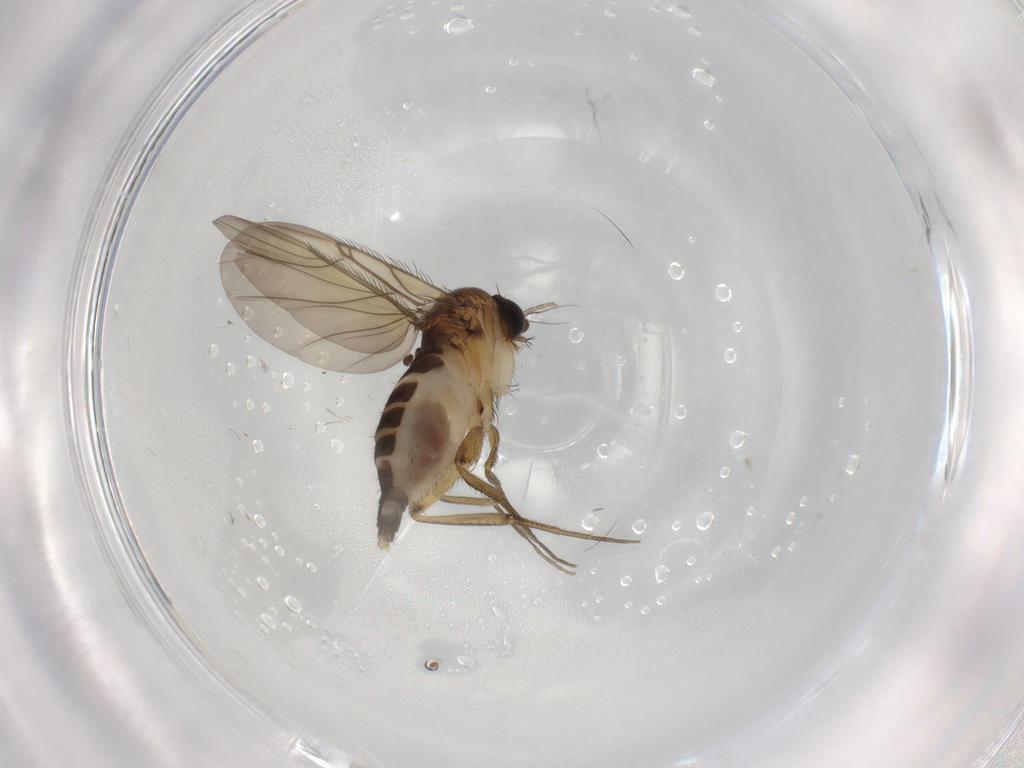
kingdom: Animalia
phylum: Arthropoda
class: Insecta
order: Diptera
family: Phoridae
